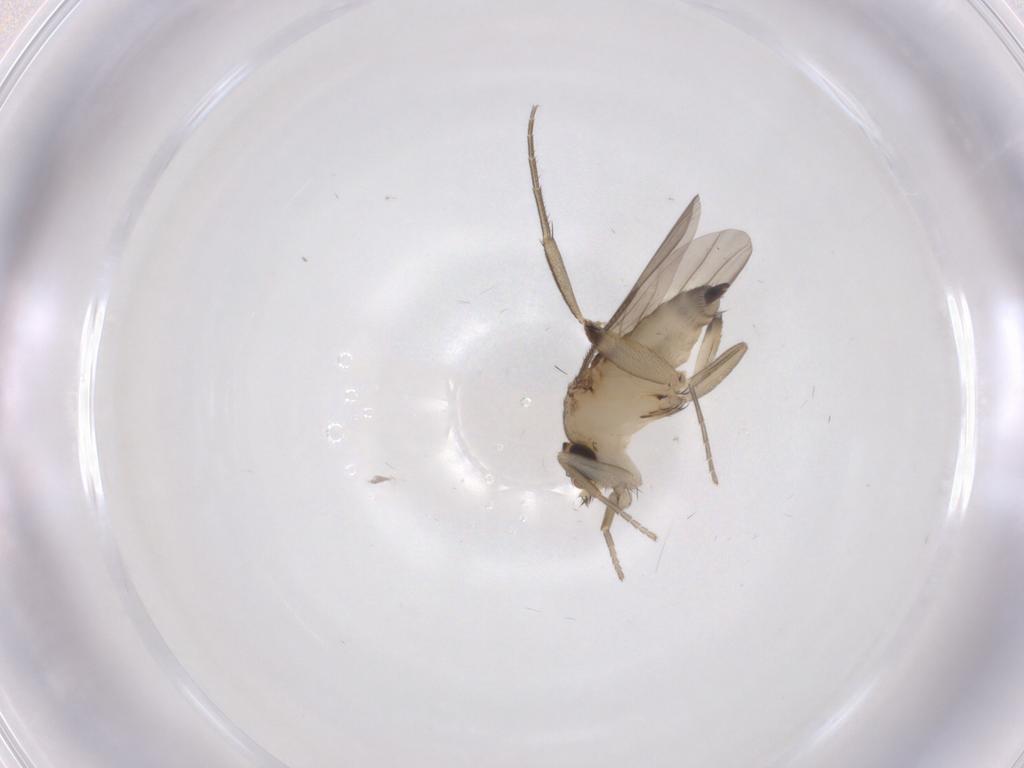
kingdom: Animalia
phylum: Arthropoda
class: Insecta
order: Diptera
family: Phoridae
